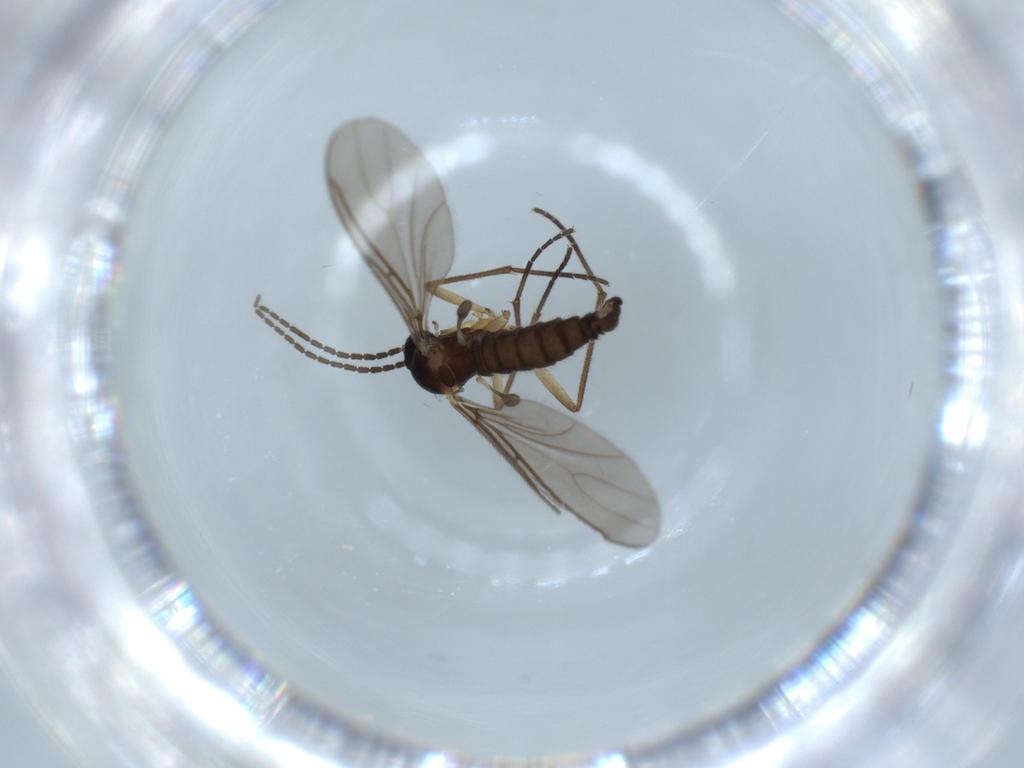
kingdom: Animalia
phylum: Arthropoda
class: Insecta
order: Diptera
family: Sciaridae
